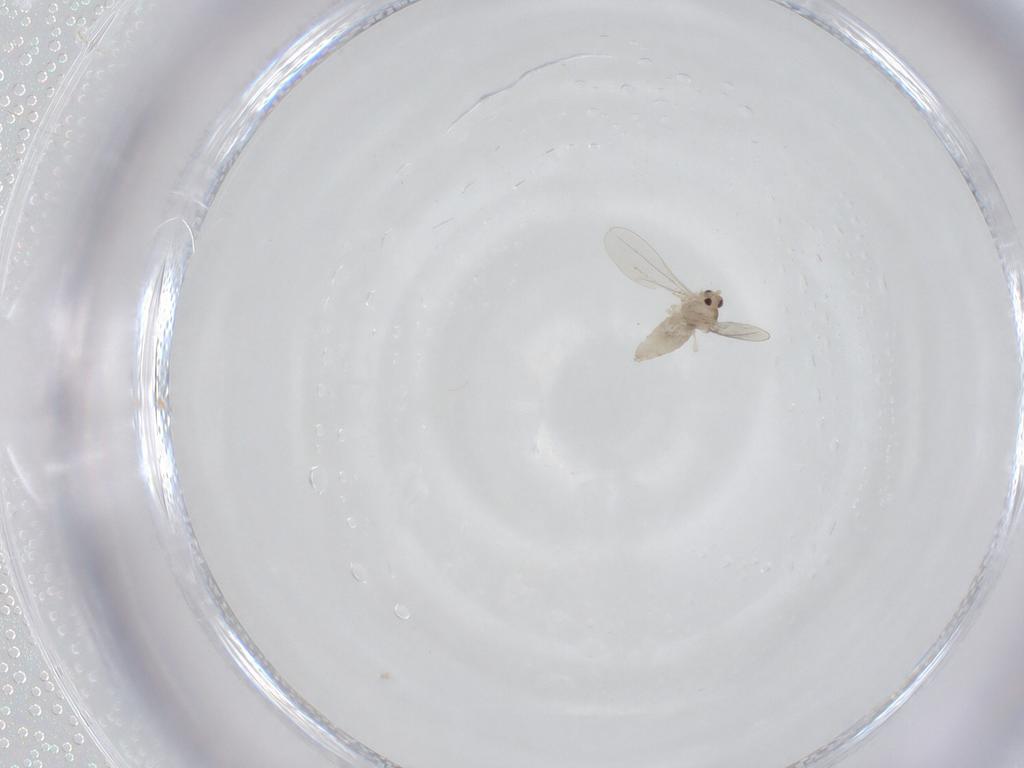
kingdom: Animalia
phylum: Arthropoda
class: Insecta
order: Diptera
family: Cecidomyiidae
